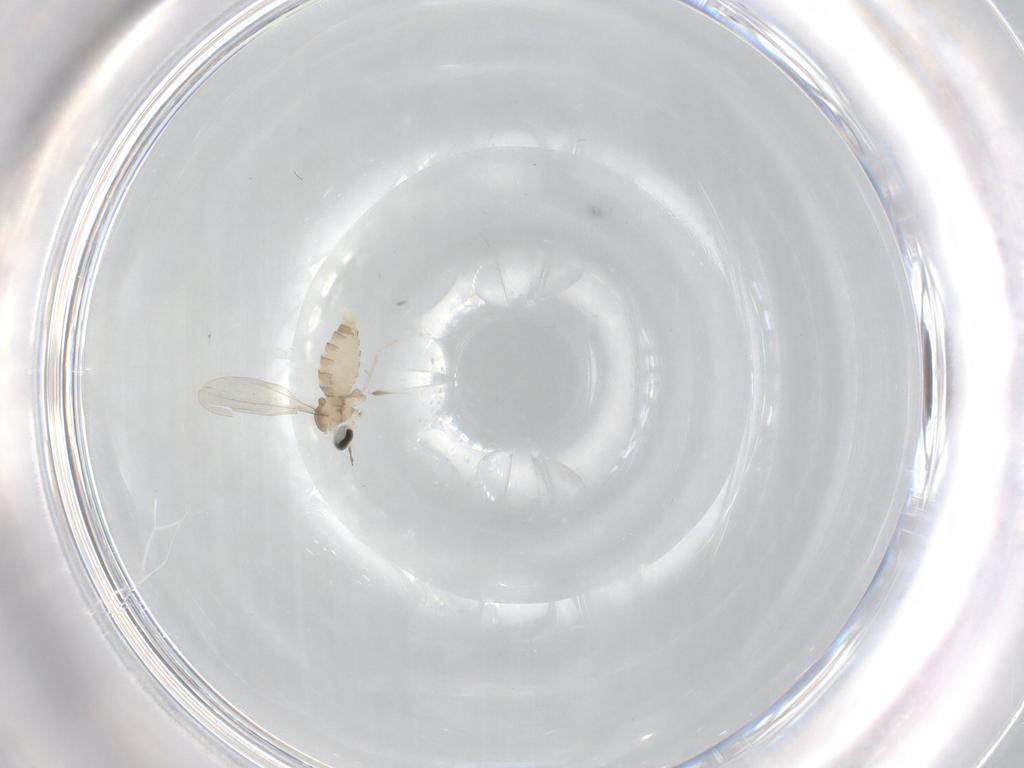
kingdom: Animalia
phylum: Arthropoda
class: Insecta
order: Diptera
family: Cecidomyiidae
